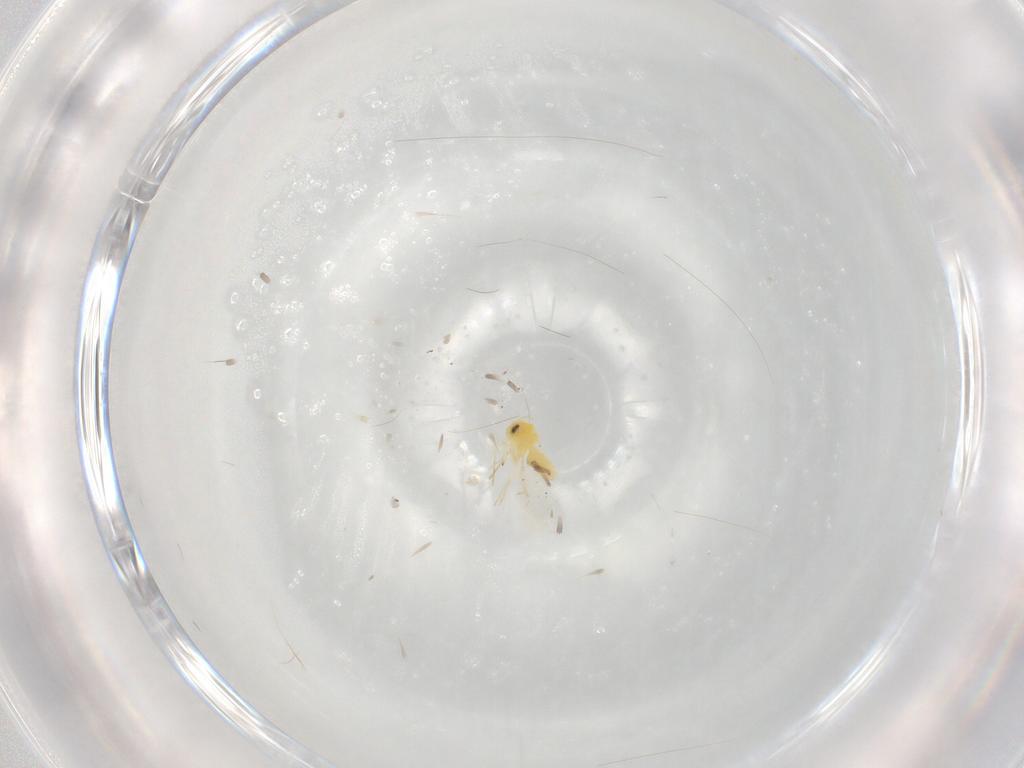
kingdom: Animalia
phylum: Arthropoda
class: Insecta
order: Hemiptera
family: Aleyrodidae
